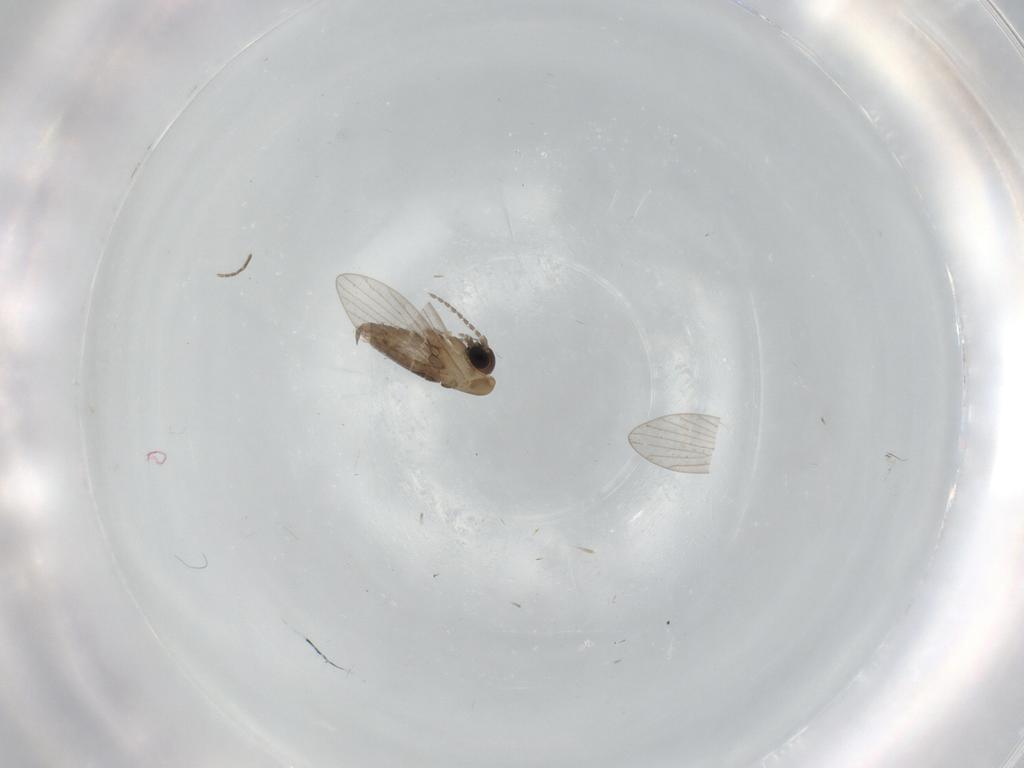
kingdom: Animalia
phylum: Arthropoda
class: Insecta
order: Diptera
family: Psychodidae
